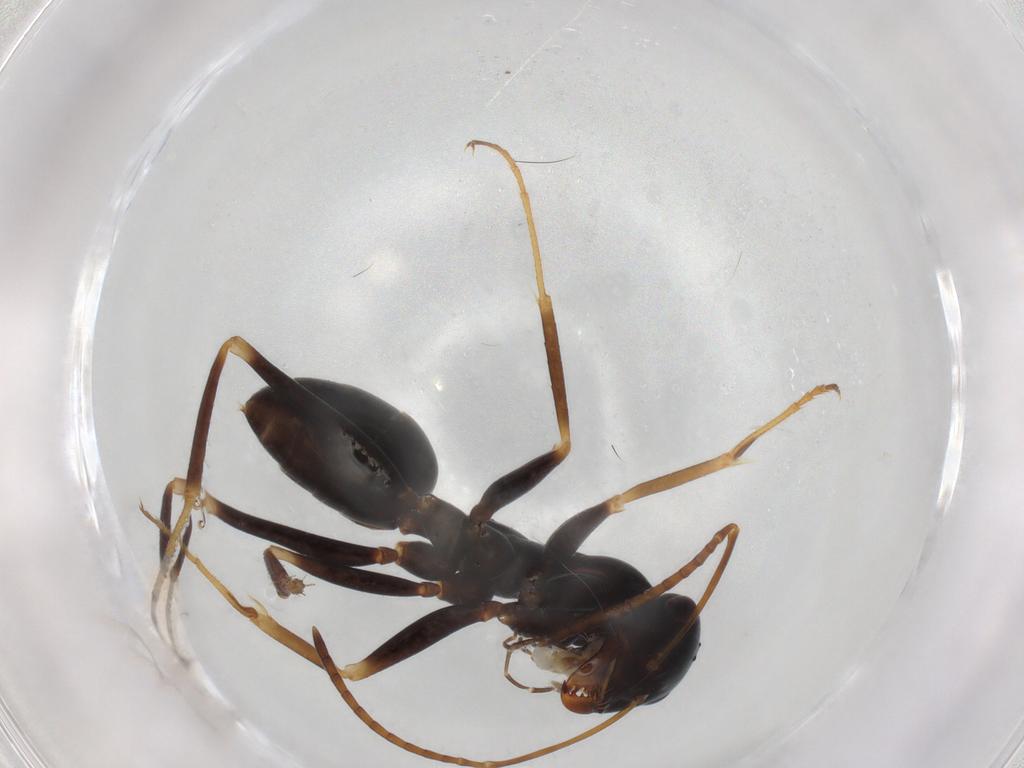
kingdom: Animalia
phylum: Arthropoda
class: Insecta
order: Hymenoptera
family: Formicidae
